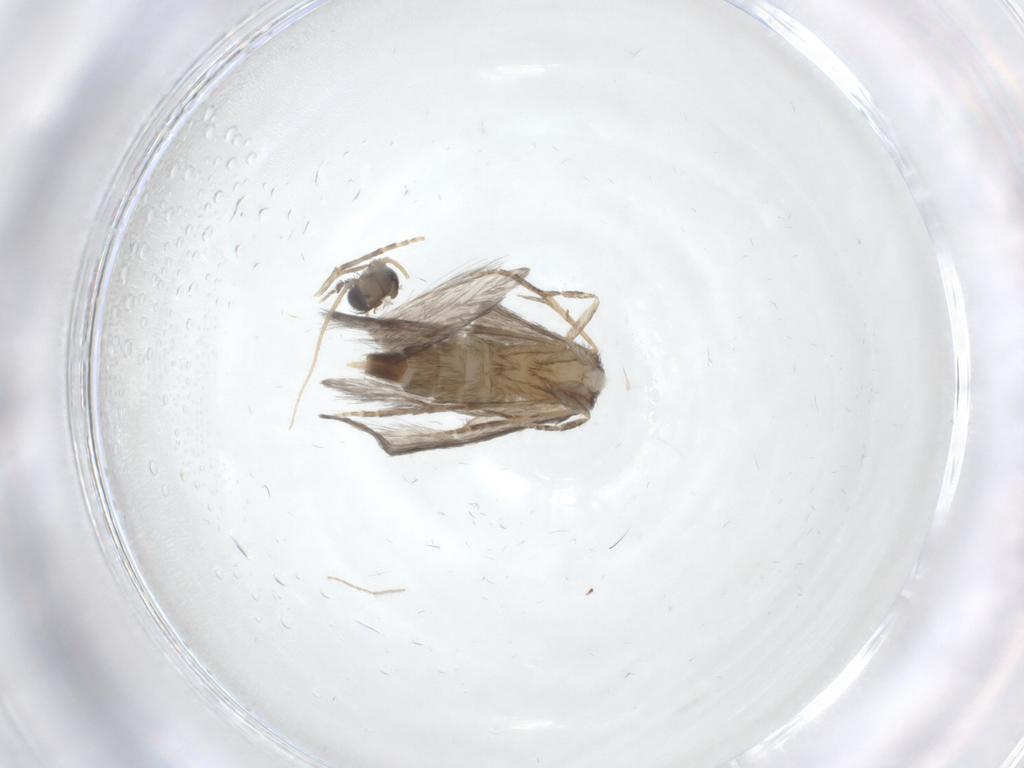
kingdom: Animalia
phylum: Arthropoda
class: Insecta
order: Trichoptera
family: Hydroptilidae
